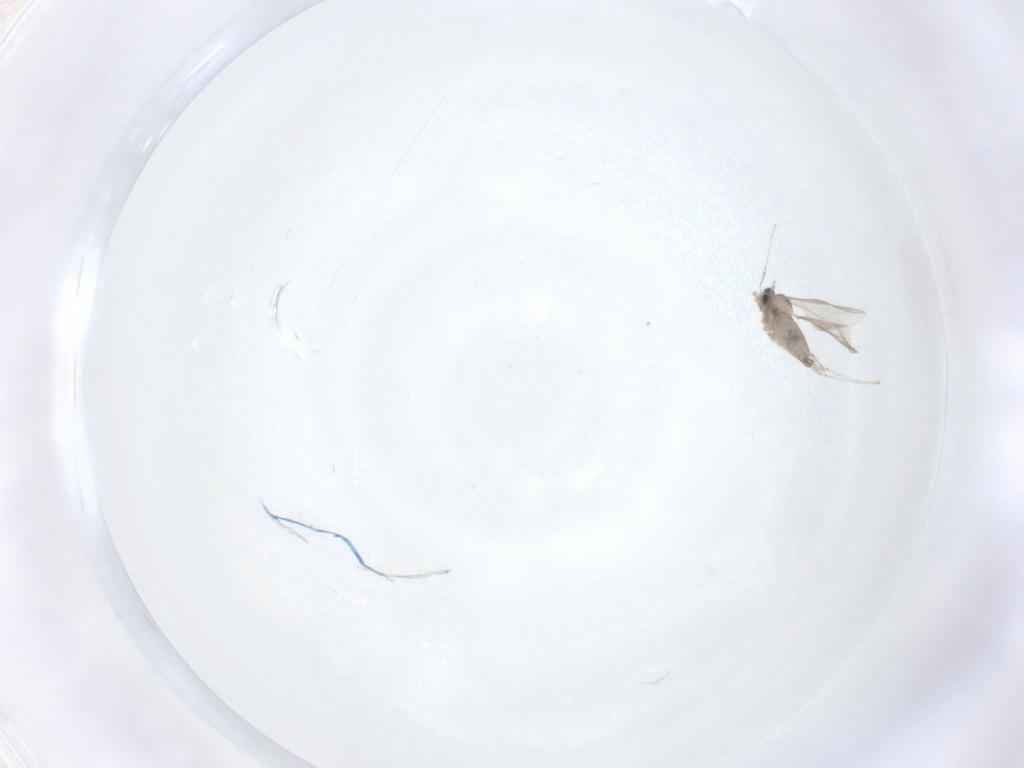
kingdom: Animalia
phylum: Arthropoda
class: Insecta
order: Diptera
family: Cecidomyiidae
